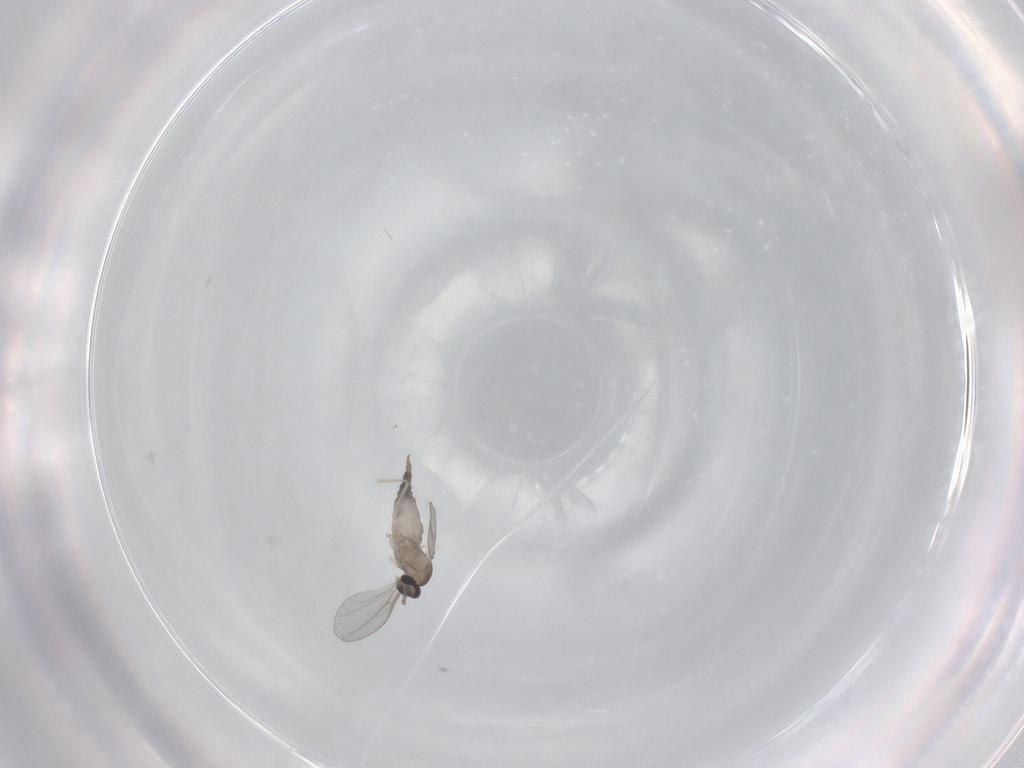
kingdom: Animalia
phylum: Arthropoda
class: Insecta
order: Diptera
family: Cecidomyiidae
